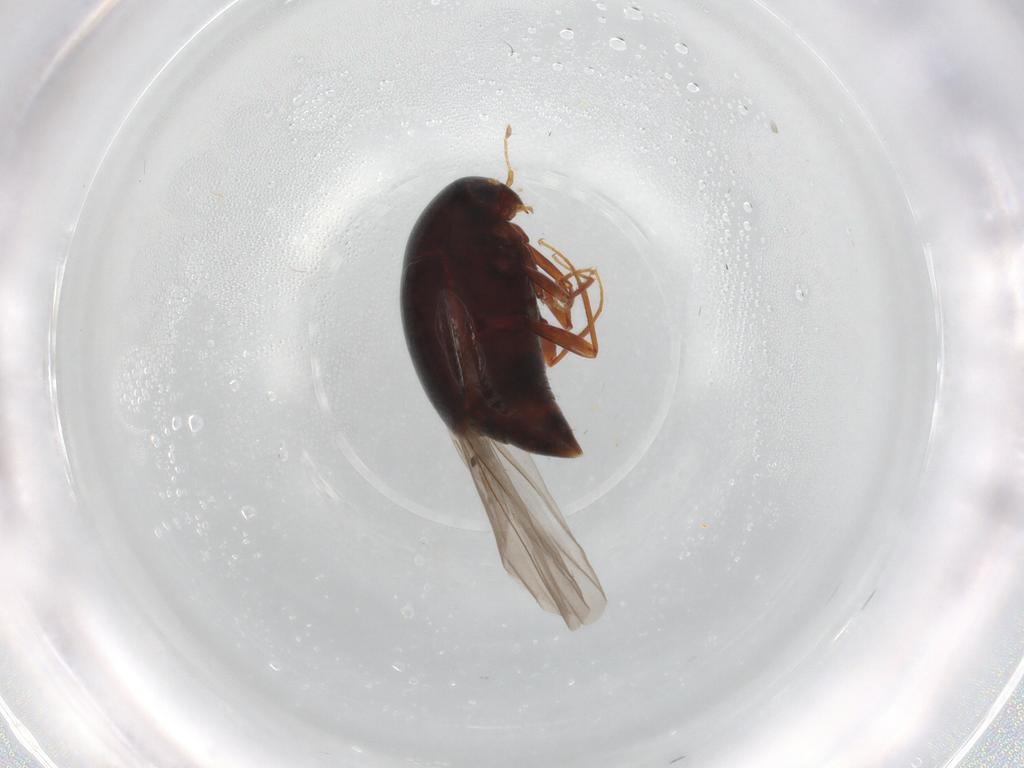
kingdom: Animalia
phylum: Arthropoda
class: Insecta
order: Coleoptera
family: Staphylinidae
